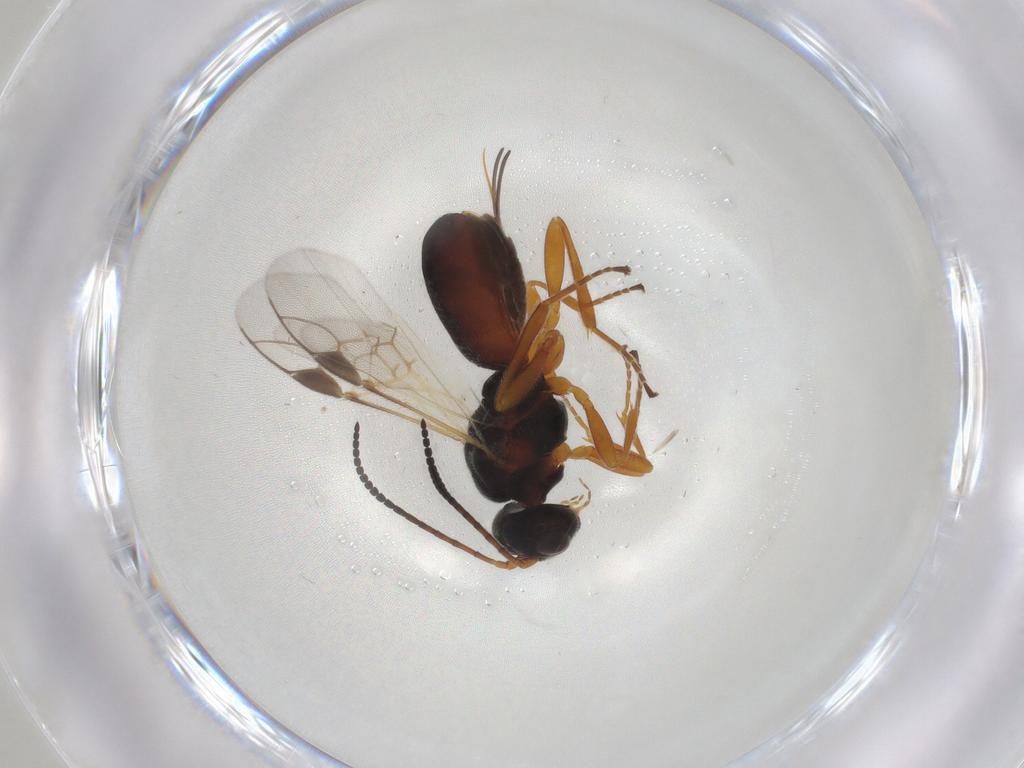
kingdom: Animalia
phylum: Arthropoda
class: Insecta
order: Hymenoptera
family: Braconidae
